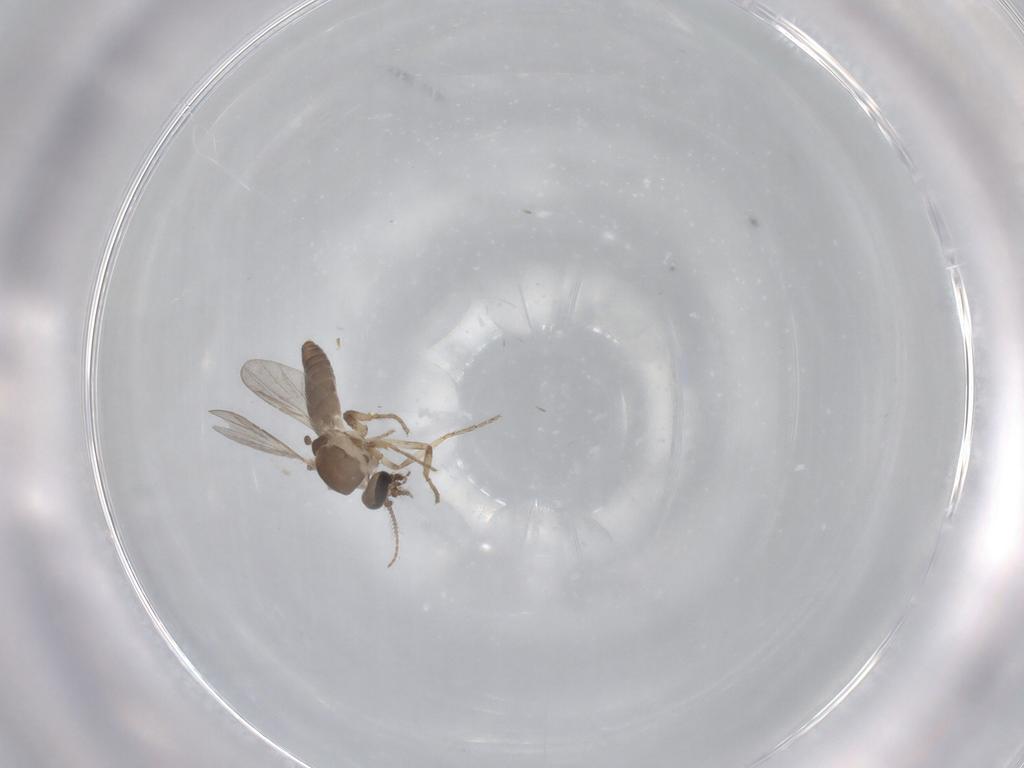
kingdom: Animalia
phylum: Arthropoda
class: Insecta
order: Diptera
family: Ceratopogonidae
